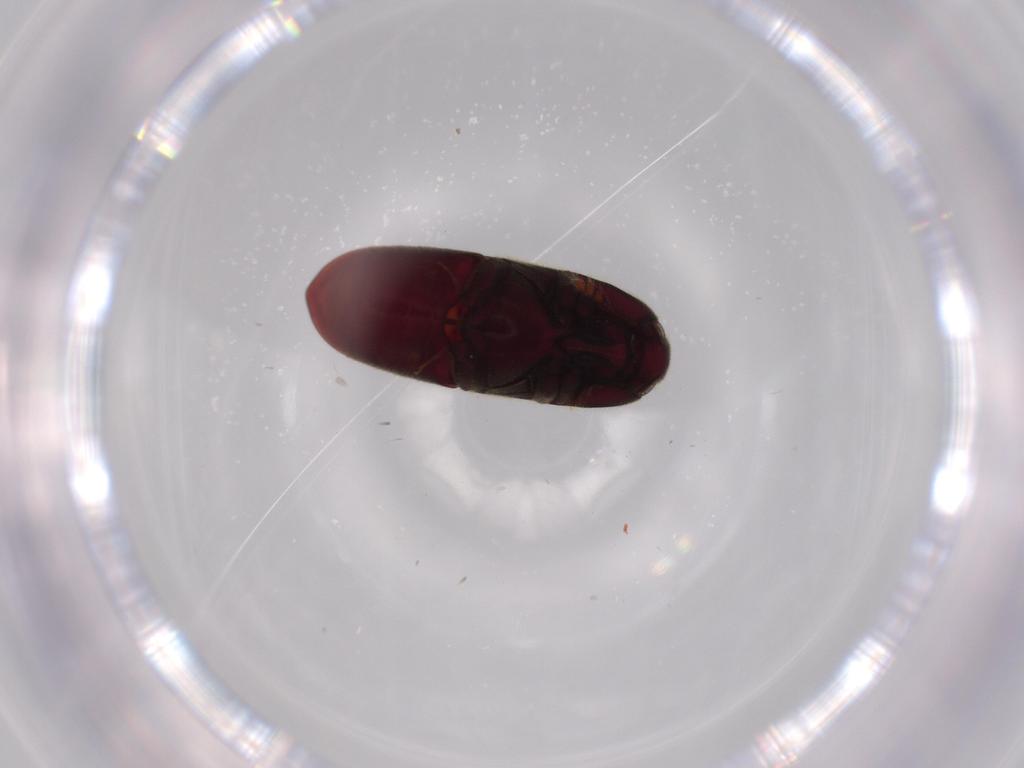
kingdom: Animalia
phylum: Arthropoda
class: Insecta
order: Coleoptera
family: Throscidae
